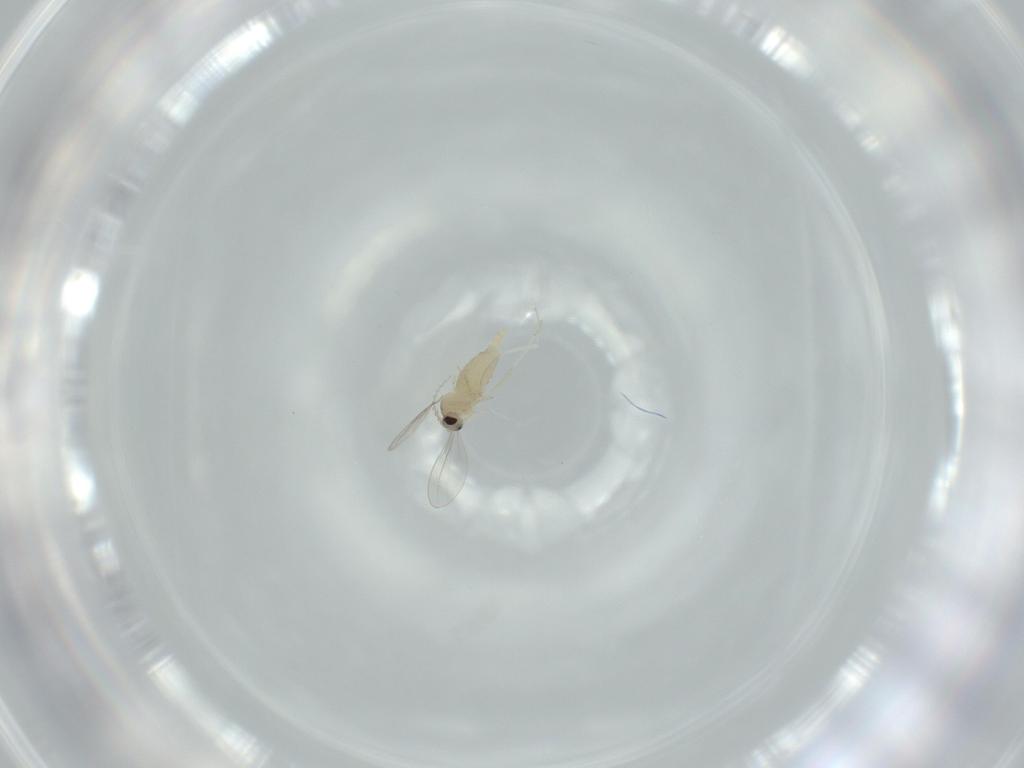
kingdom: Animalia
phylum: Arthropoda
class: Insecta
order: Diptera
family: Cecidomyiidae
